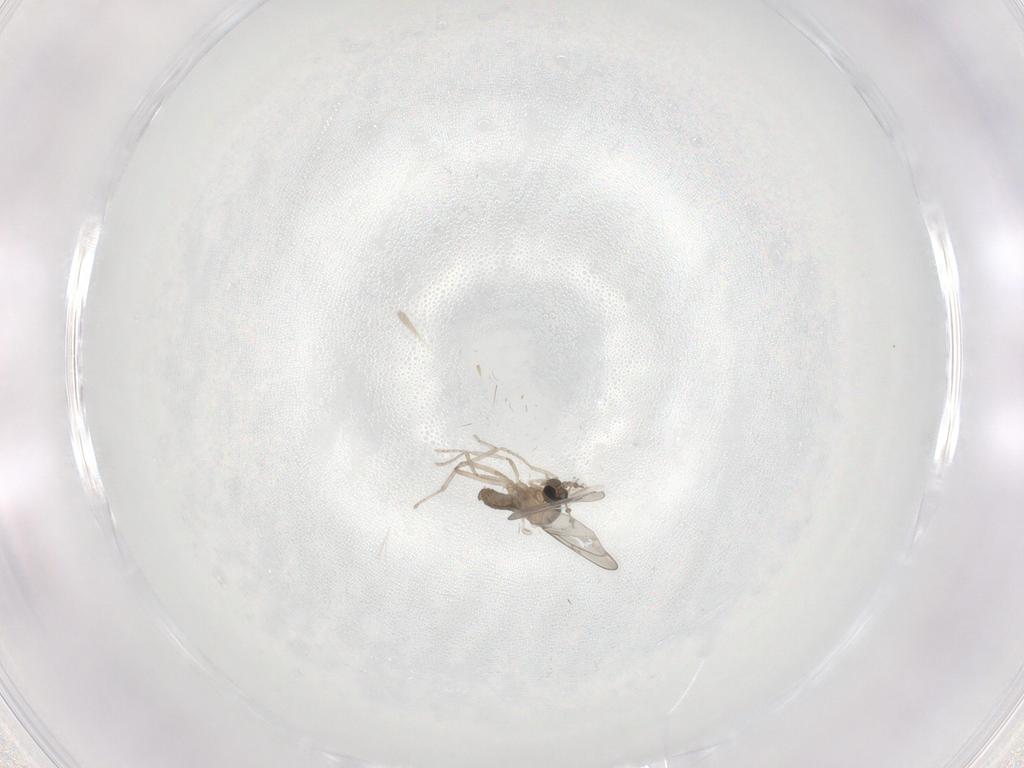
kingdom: Animalia
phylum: Arthropoda
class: Insecta
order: Diptera
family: Cecidomyiidae
